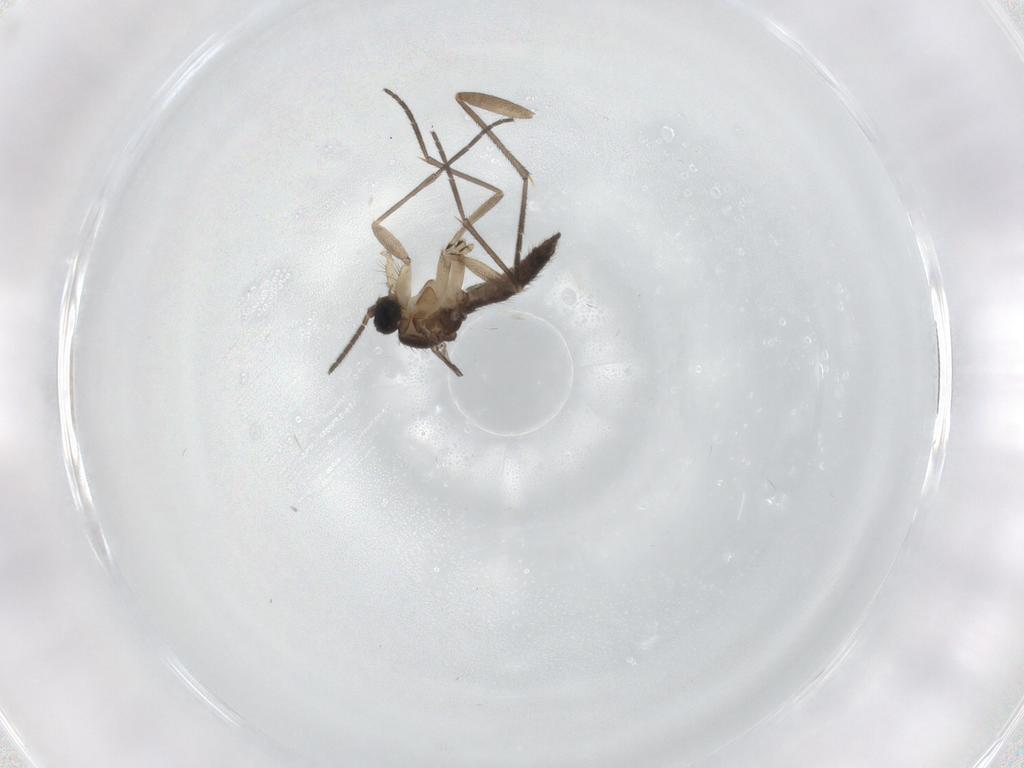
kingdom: Animalia
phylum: Arthropoda
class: Insecta
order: Diptera
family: Sciaridae
